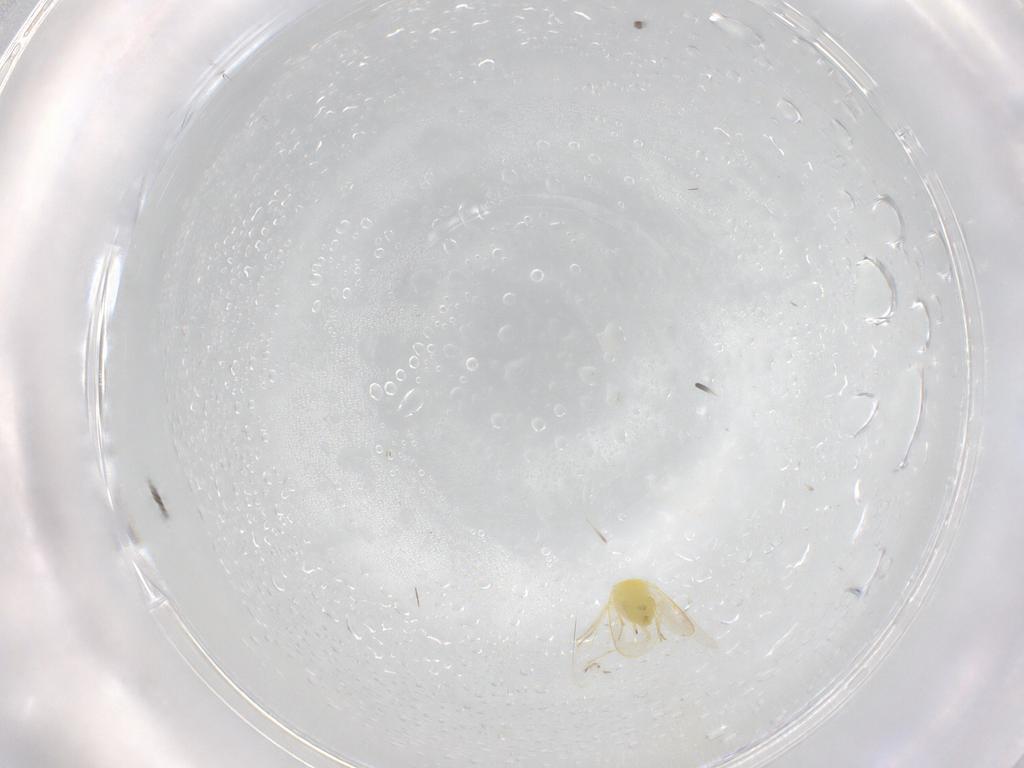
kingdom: Animalia
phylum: Arthropoda
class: Insecta
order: Hemiptera
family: Aleyrodidae
